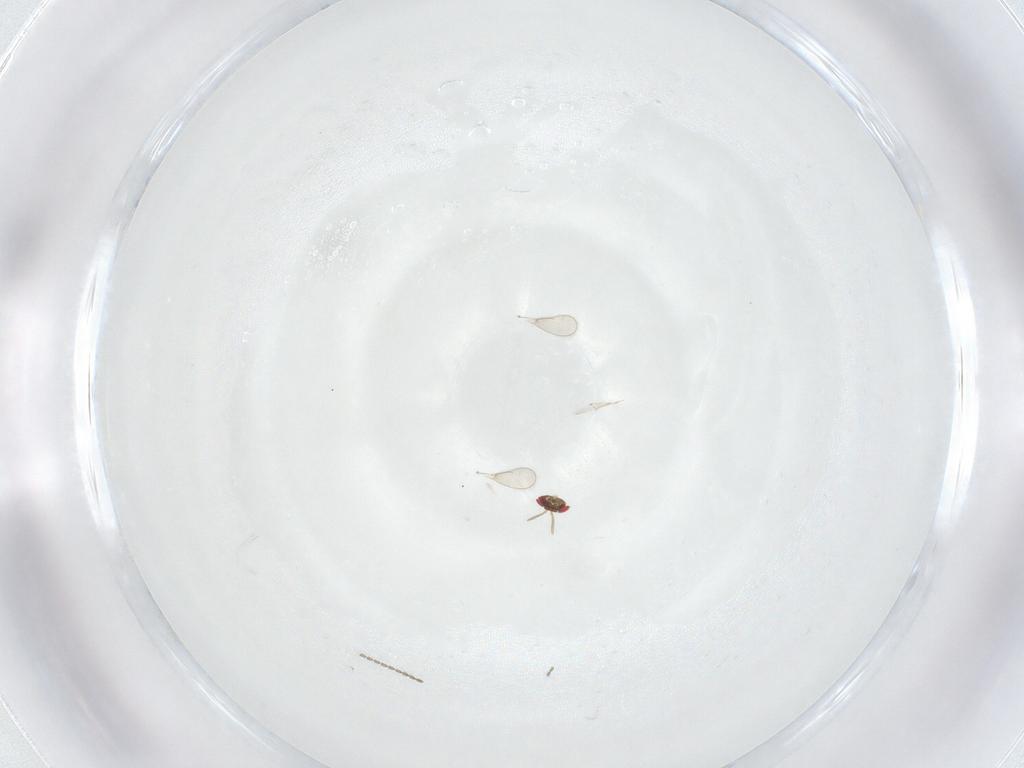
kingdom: Animalia
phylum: Arthropoda
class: Insecta
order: Hymenoptera
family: Aphelinidae
